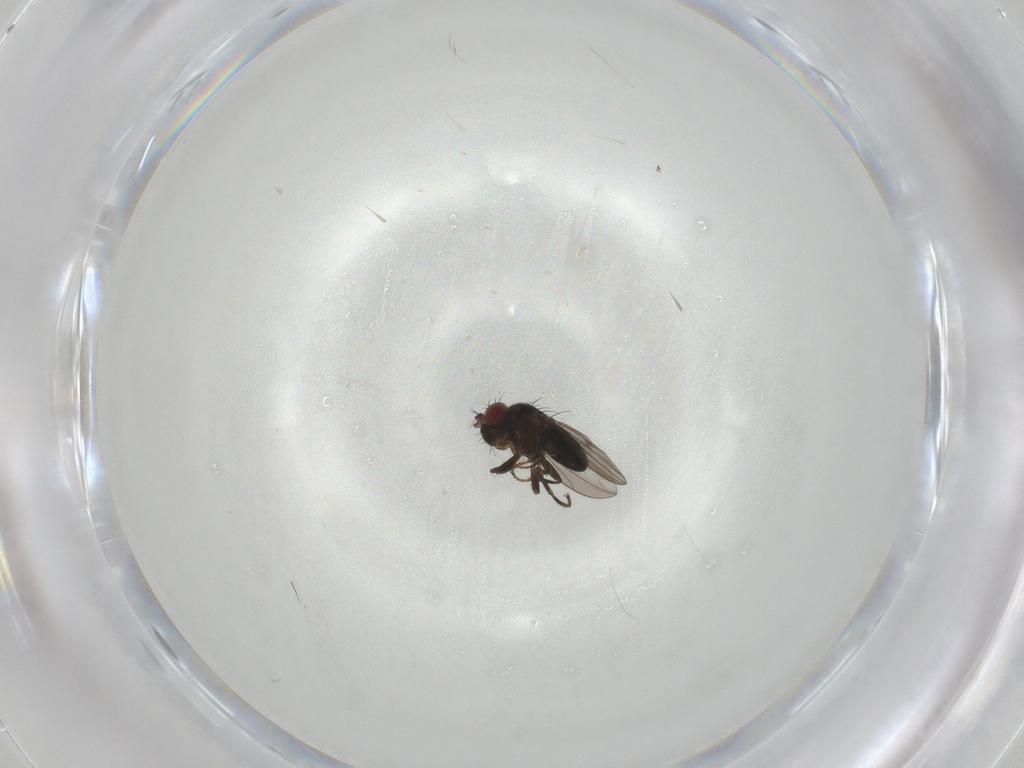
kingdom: Animalia
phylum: Arthropoda
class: Insecta
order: Diptera
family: Ephydridae
